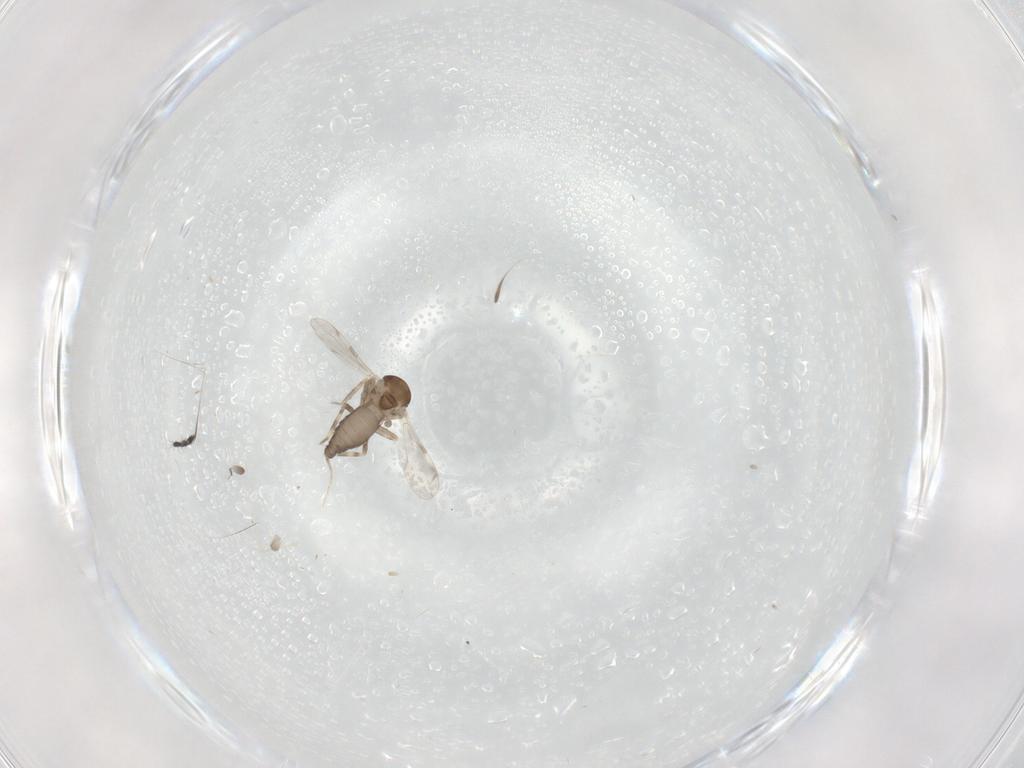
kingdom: Animalia
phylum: Arthropoda
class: Insecta
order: Diptera
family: Ceratopogonidae
